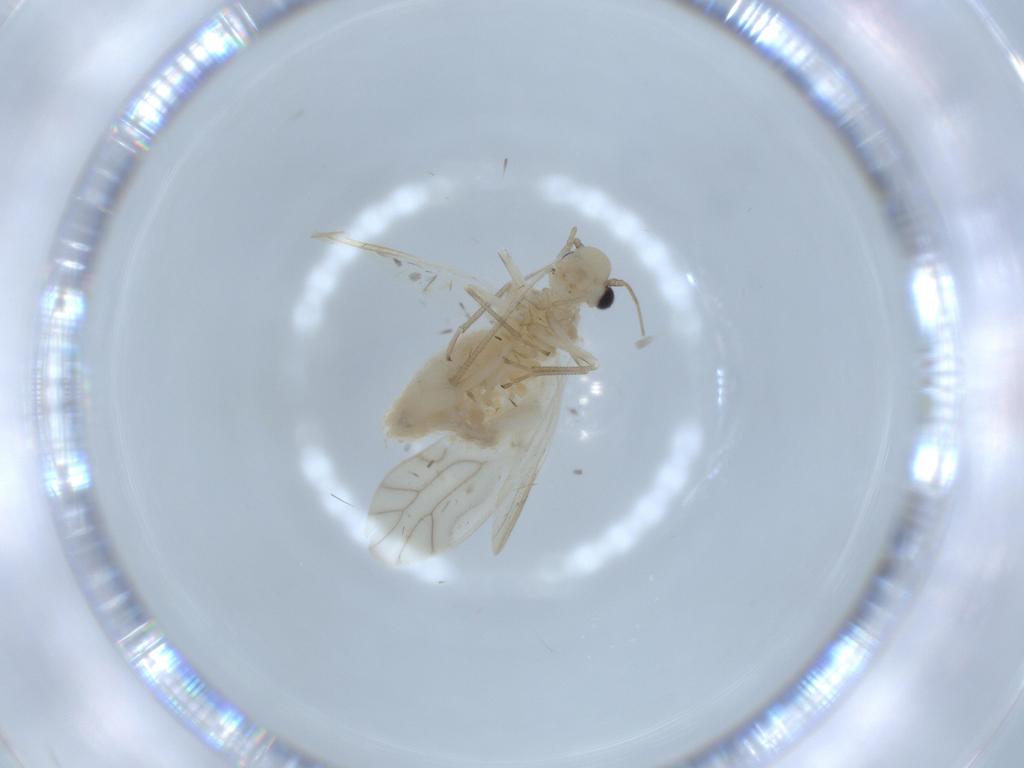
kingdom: Animalia
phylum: Arthropoda
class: Insecta
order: Psocodea
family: Caeciliusidae
